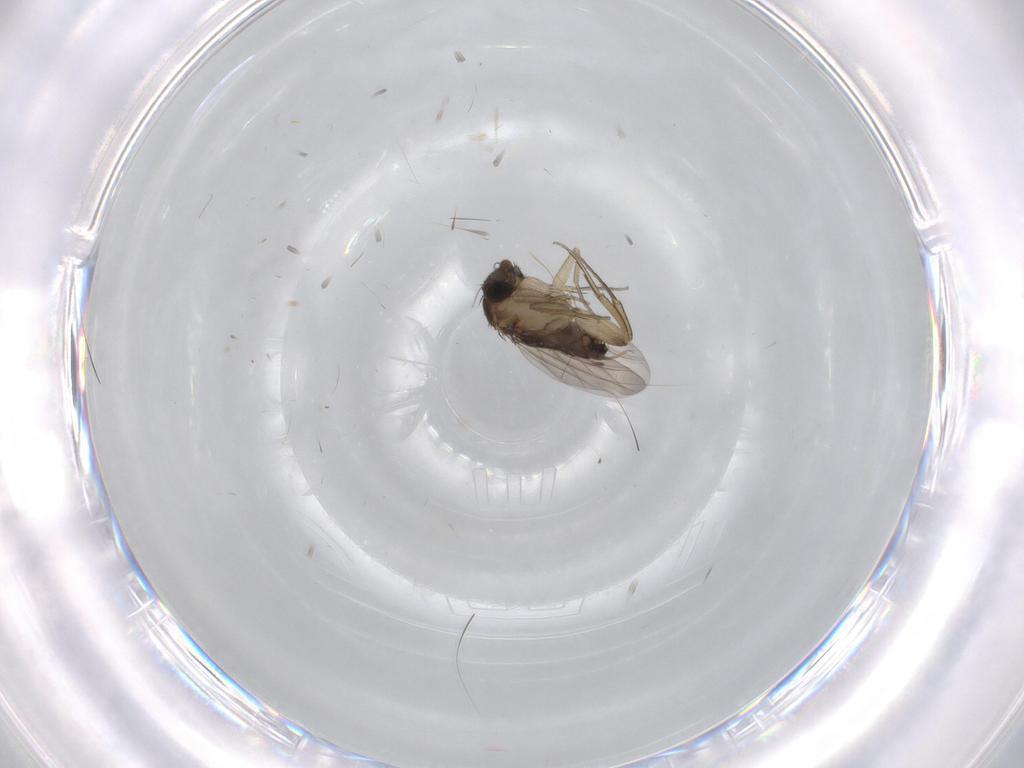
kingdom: Animalia
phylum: Arthropoda
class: Insecta
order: Diptera
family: Phoridae
